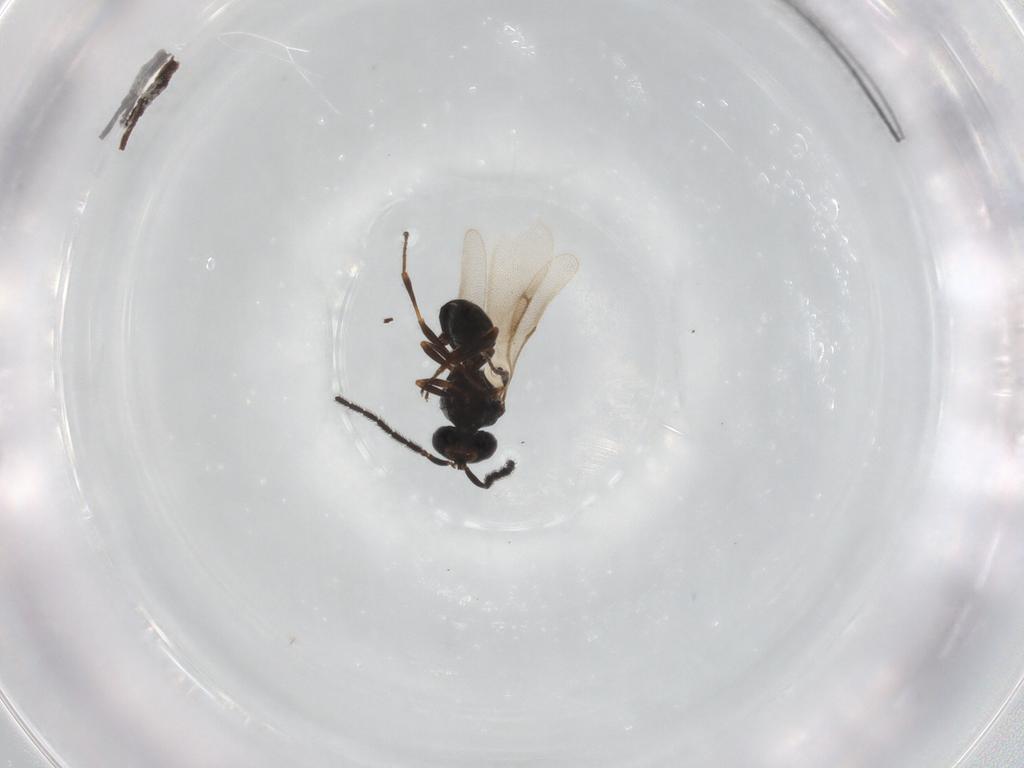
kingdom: Animalia
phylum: Arthropoda
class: Insecta
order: Hymenoptera
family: Scelionidae
